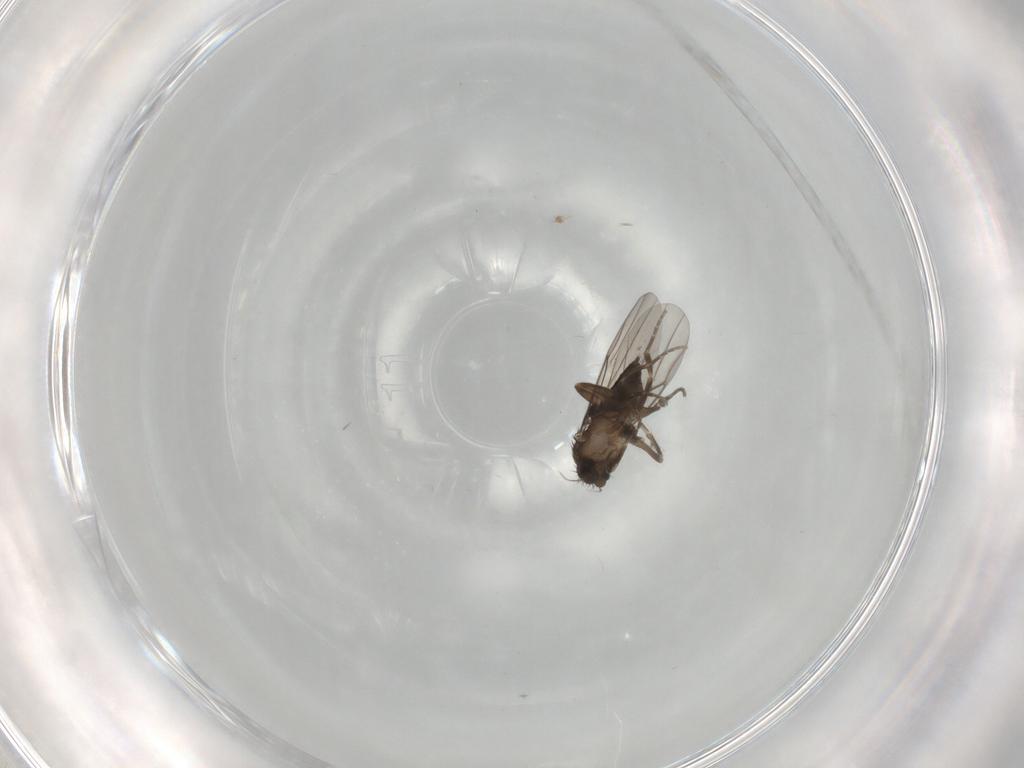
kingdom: Animalia
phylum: Arthropoda
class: Insecta
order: Diptera
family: Cecidomyiidae
